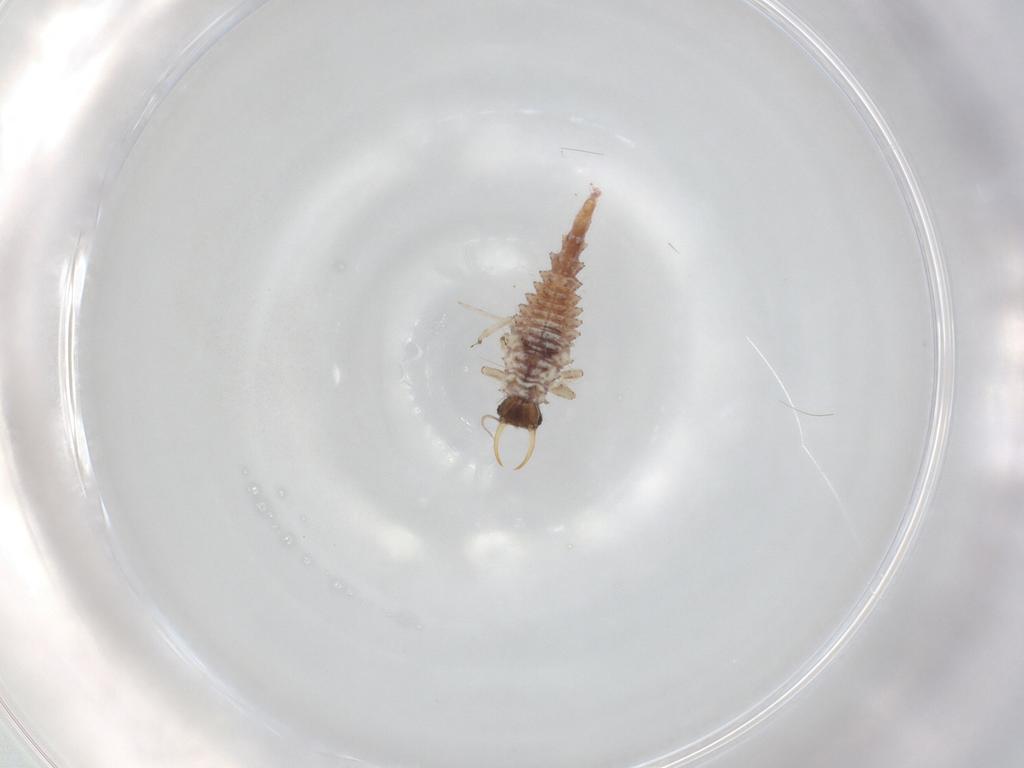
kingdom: Animalia
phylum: Arthropoda
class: Insecta
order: Neuroptera
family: Chrysopidae
